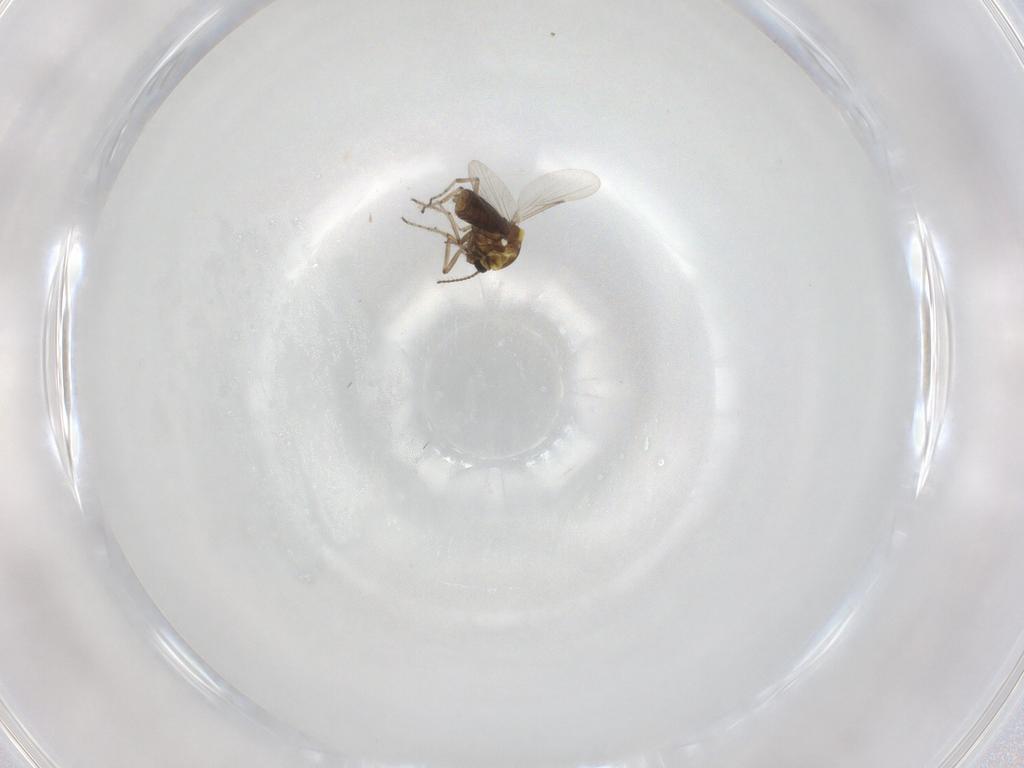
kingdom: Animalia
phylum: Arthropoda
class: Insecta
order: Diptera
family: Ceratopogonidae
